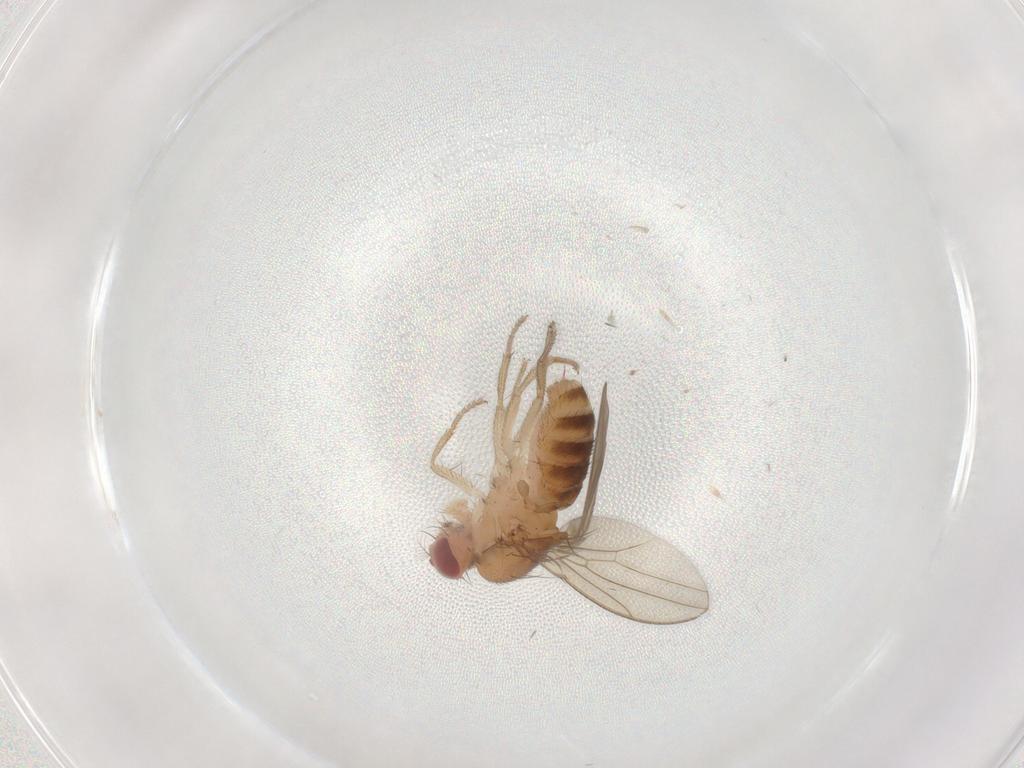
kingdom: Animalia
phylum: Arthropoda
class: Insecta
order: Diptera
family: Drosophilidae
